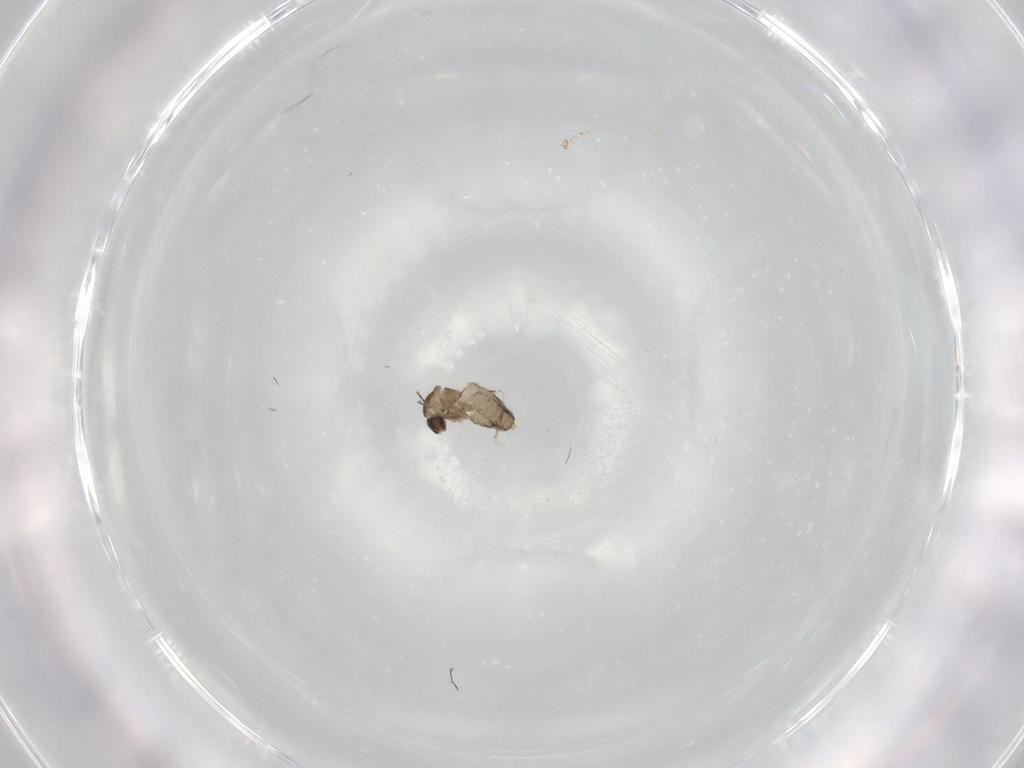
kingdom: Animalia
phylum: Arthropoda
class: Insecta
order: Diptera
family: Cecidomyiidae
